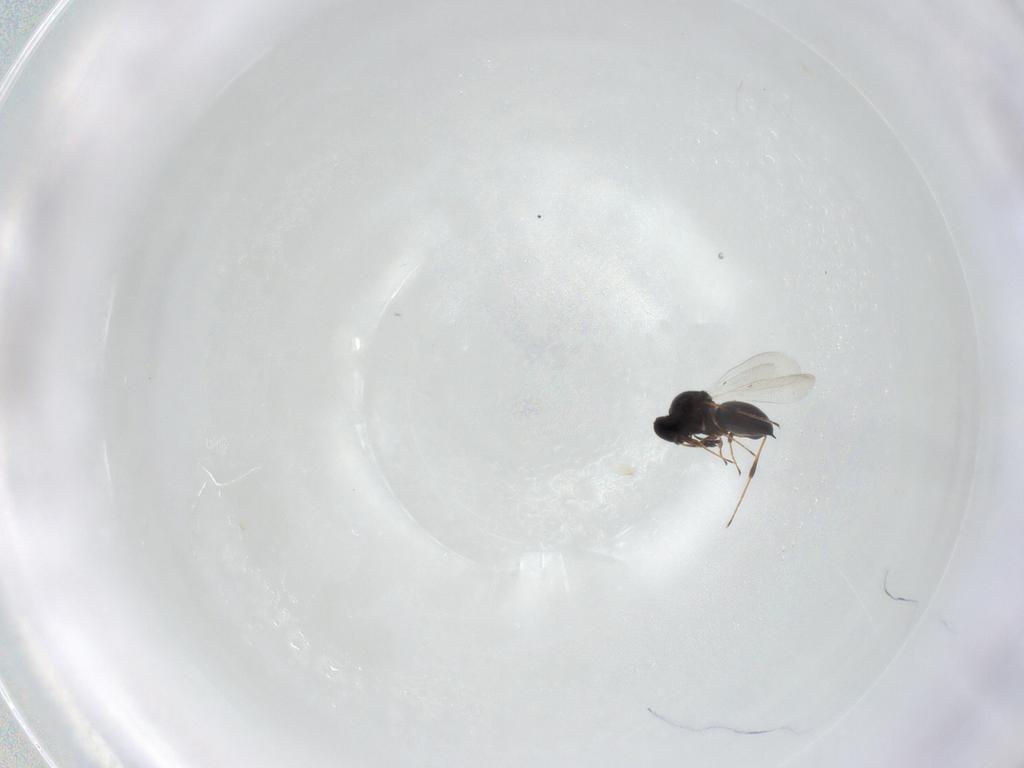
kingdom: Animalia
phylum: Arthropoda
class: Insecta
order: Hymenoptera
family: Platygastridae
